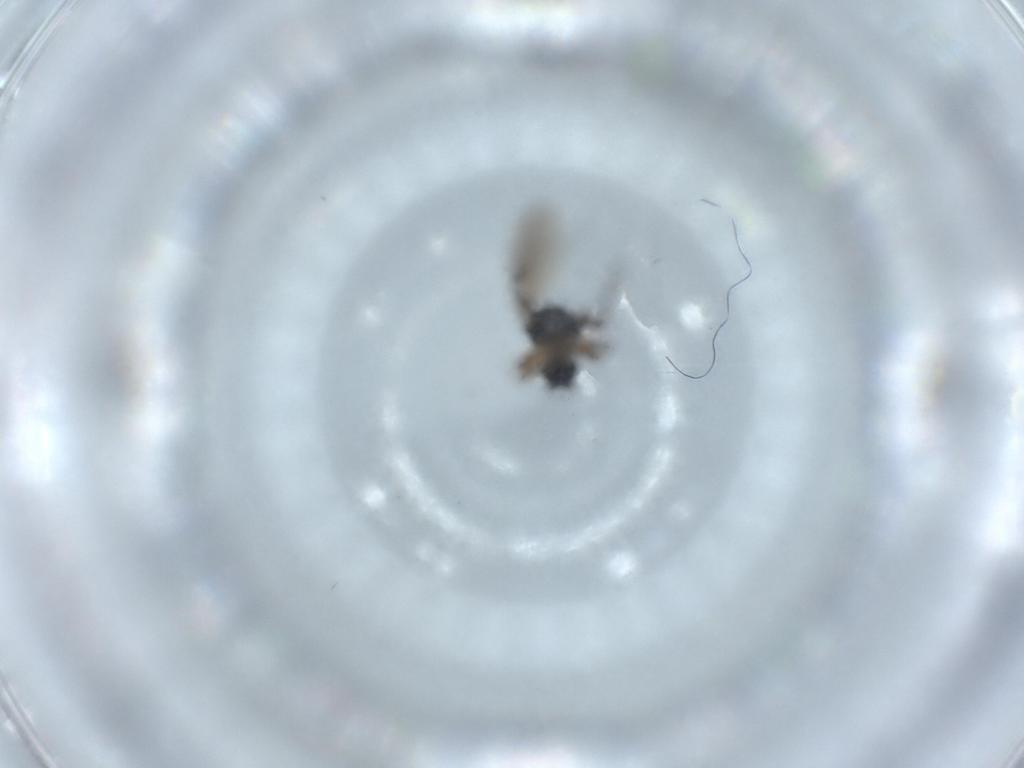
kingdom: Animalia
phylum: Arthropoda
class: Insecta
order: Diptera
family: Hybotidae
